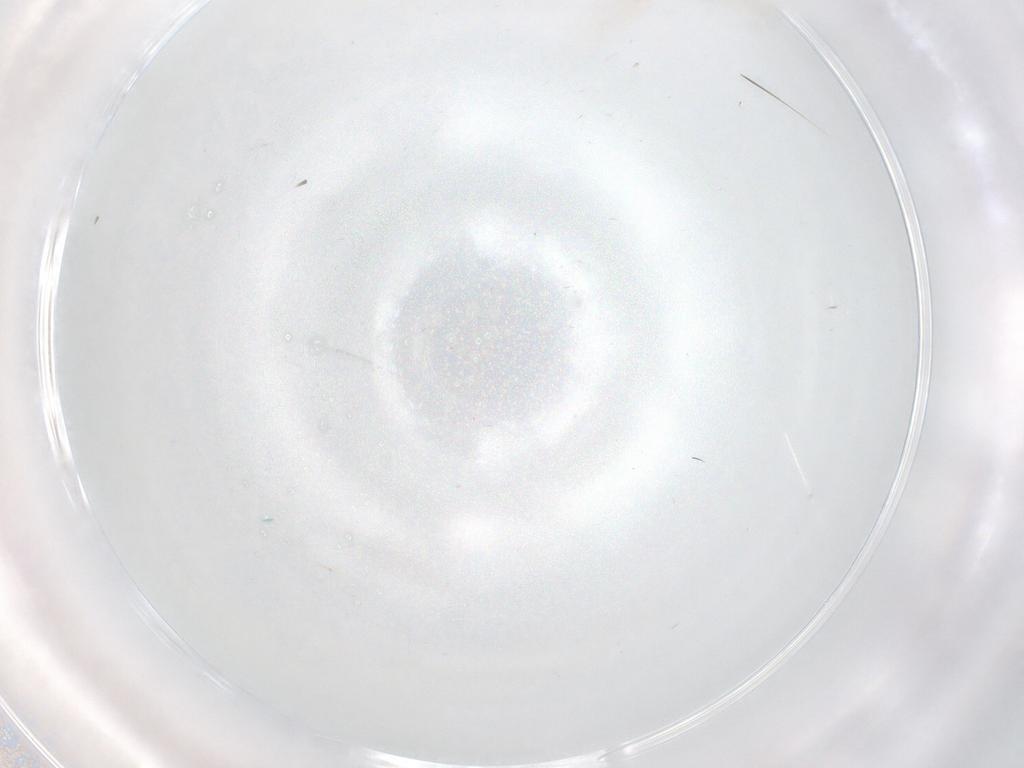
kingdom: Animalia
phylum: Arthropoda
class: Insecta
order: Hymenoptera
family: Platygastridae
